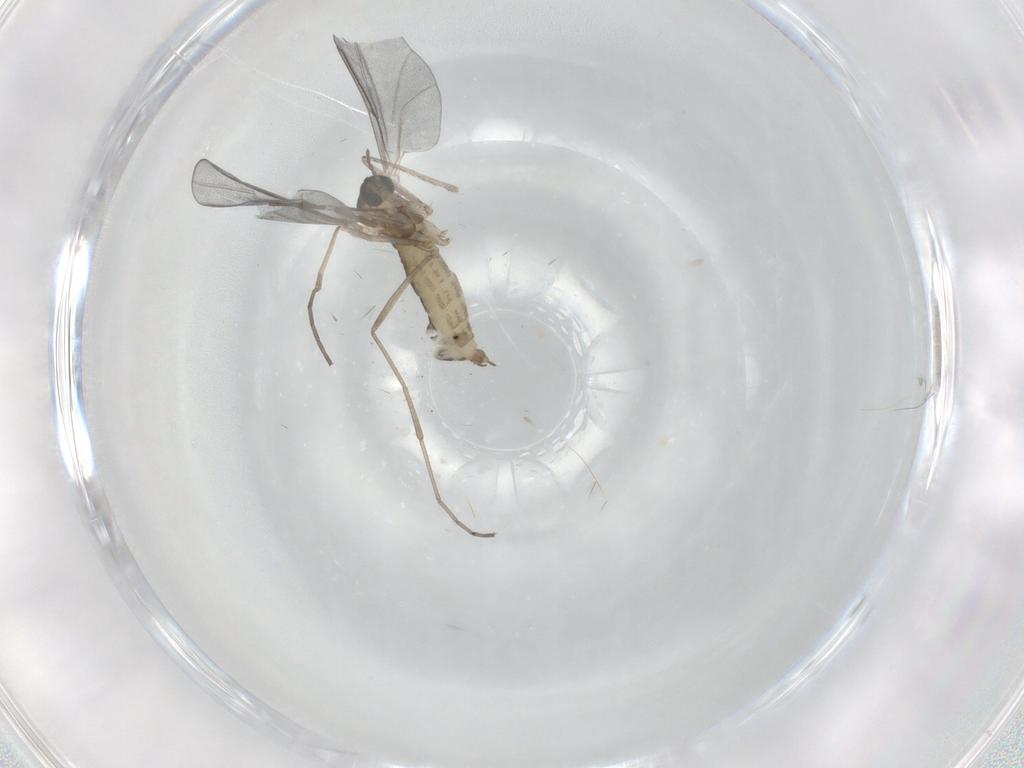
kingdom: Animalia
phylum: Arthropoda
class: Insecta
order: Diptera
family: Cecidomyiidae
